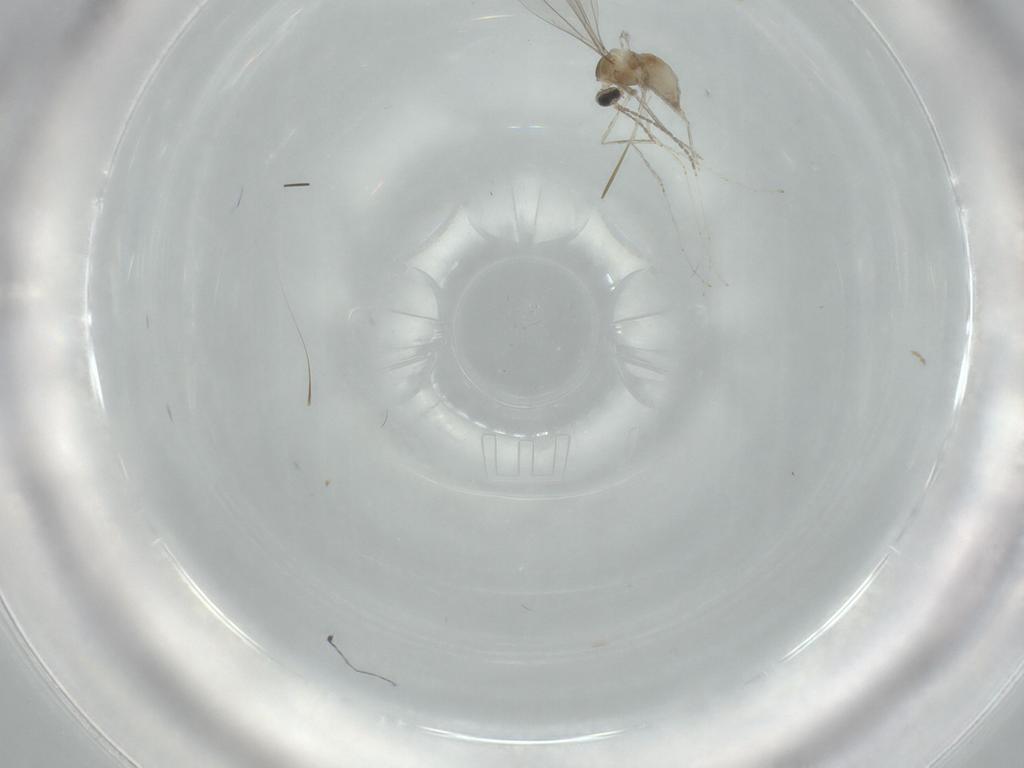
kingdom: Animalia
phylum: Arthropoda
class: Insecta
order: Diptera
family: Cecidomyiidae
